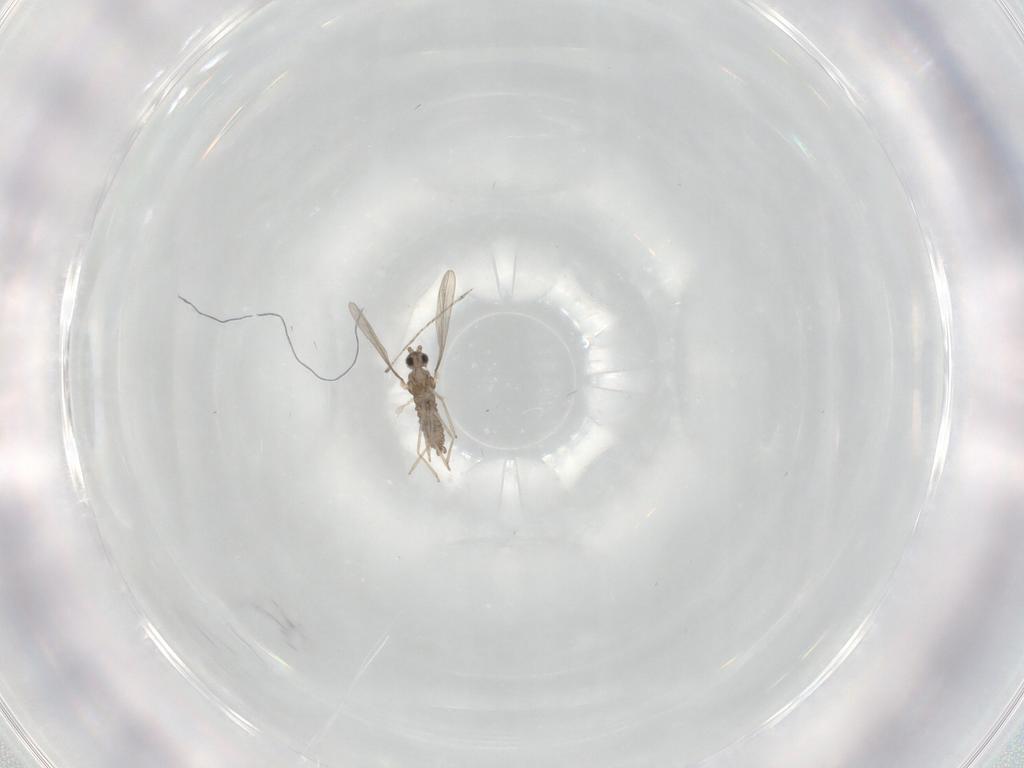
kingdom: Animalia
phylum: Arthropoda
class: Insecta
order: Diptera
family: Cecidomyiidae
